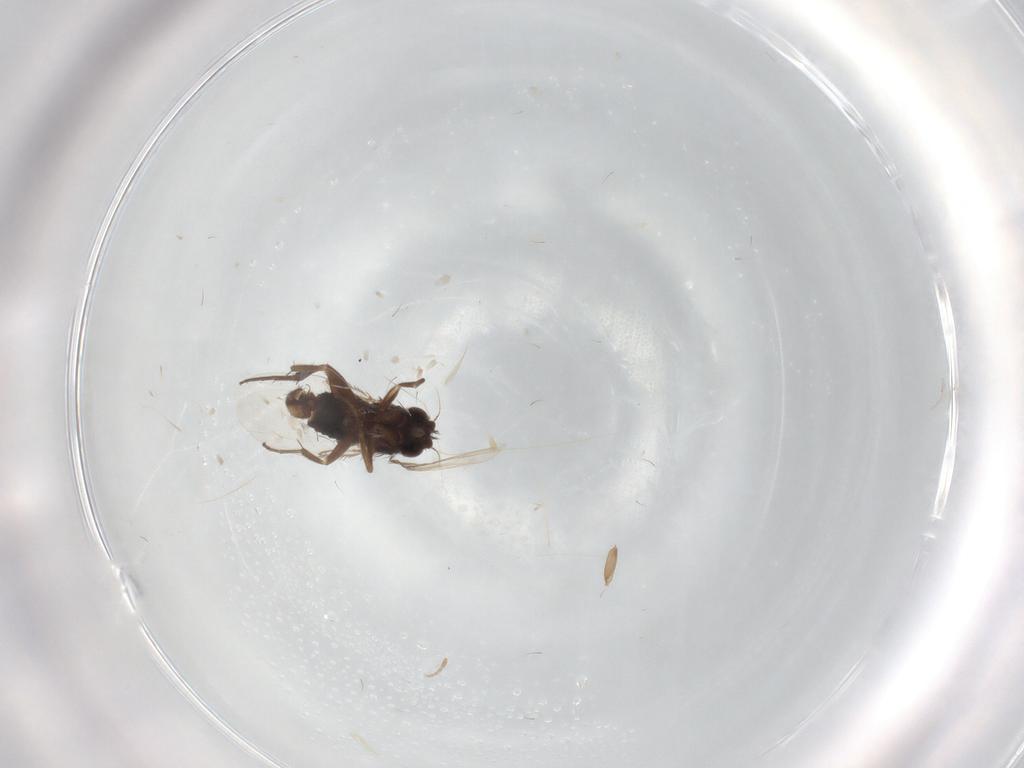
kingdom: Animalia
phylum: Arthropoda
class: Insecta
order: Diptera
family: Phoridae
